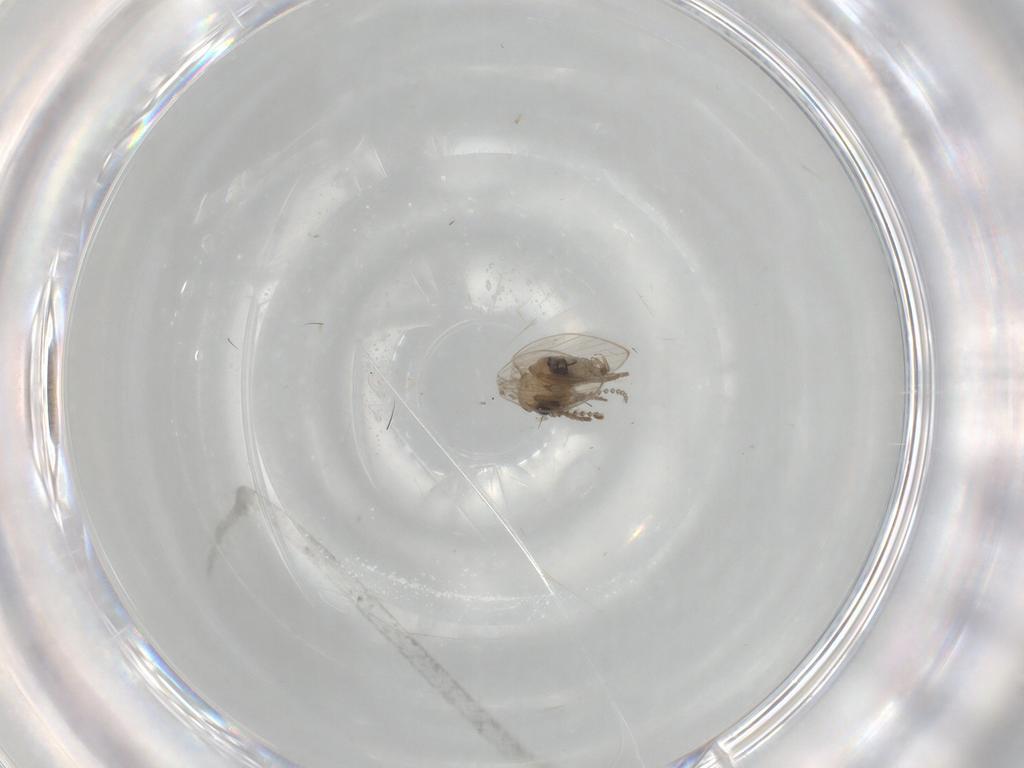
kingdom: Animalia
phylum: Arthropoda
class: Insecta
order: Diptera
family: Psychodidae
